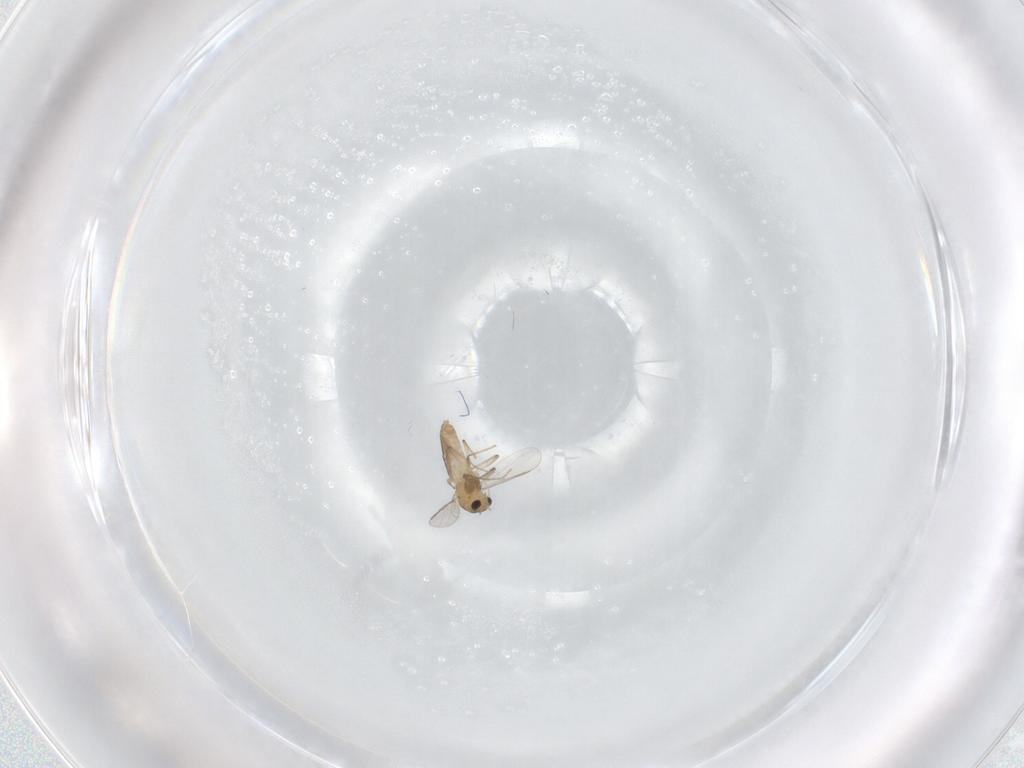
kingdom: Animalia
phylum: Arthropoda
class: Insecta
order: Diptera
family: Chironomidae
